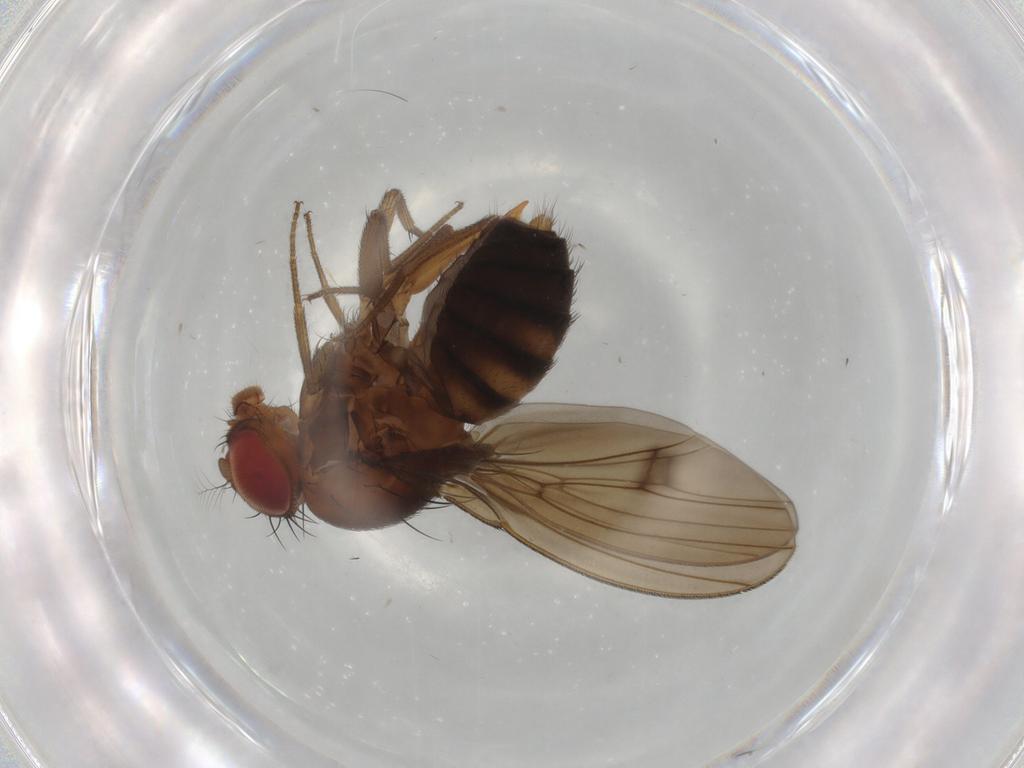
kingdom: Animalia
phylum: Arthropoda
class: Insecta
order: Diptera
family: Drosophilidae
